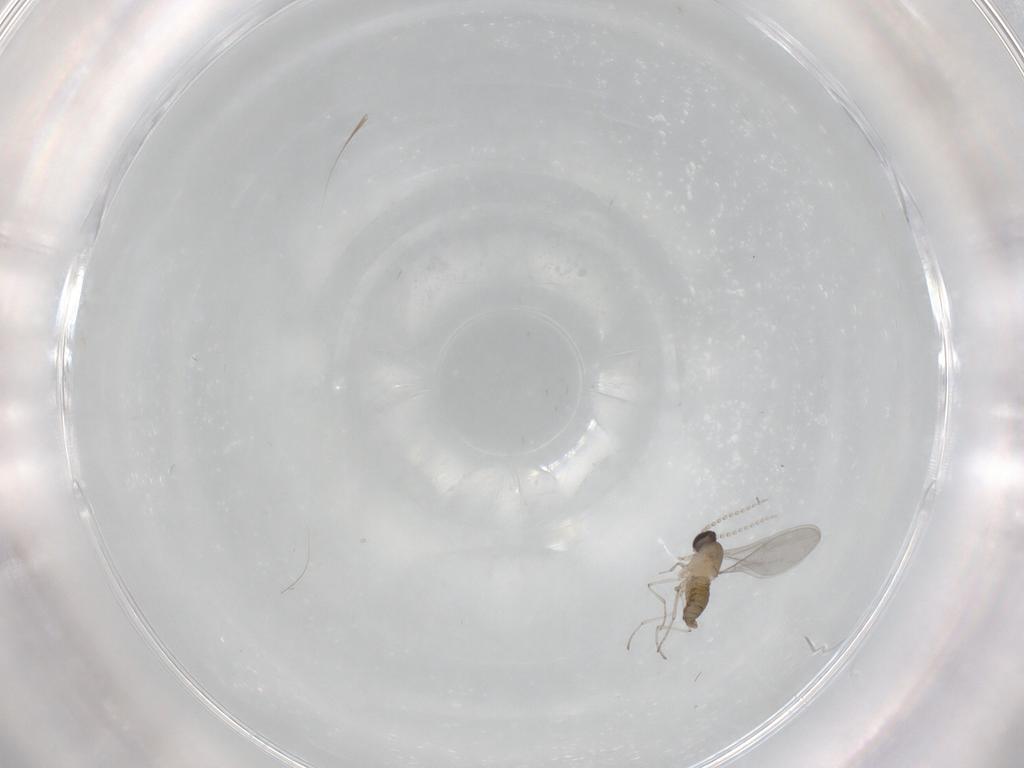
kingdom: Animalia
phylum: Arthropoda
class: Insecta
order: Diptera
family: Cecidomyiidae
